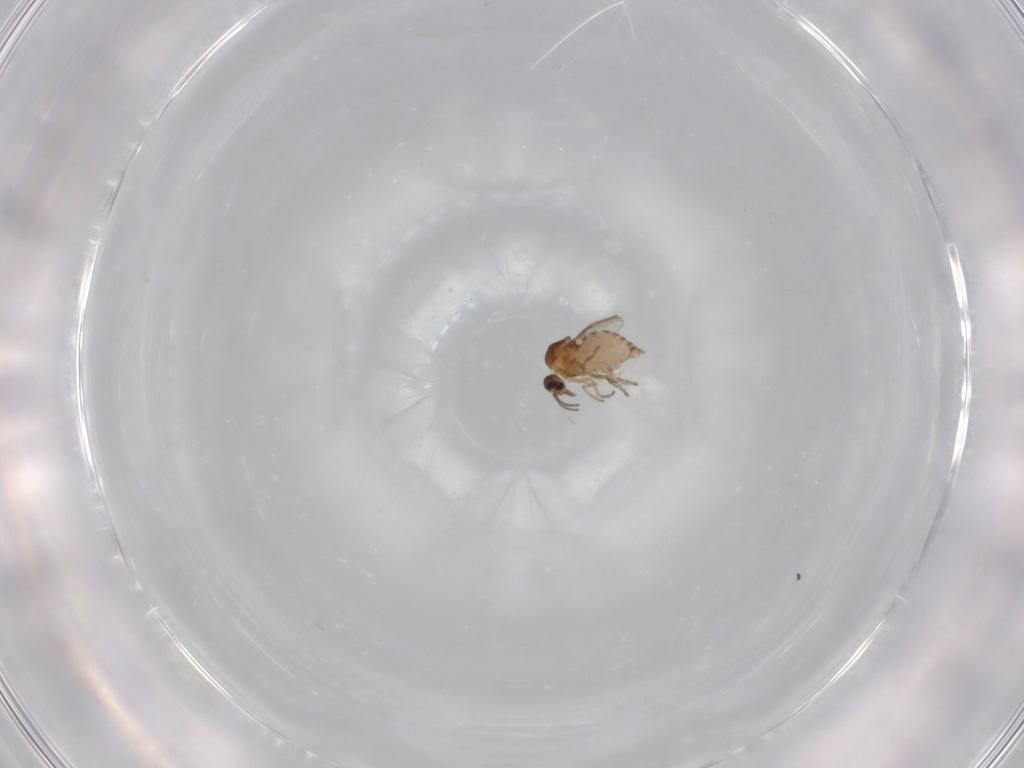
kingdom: Animalia
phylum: Arthropoda
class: Insecta
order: Diptera
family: Ceratopogonidae
